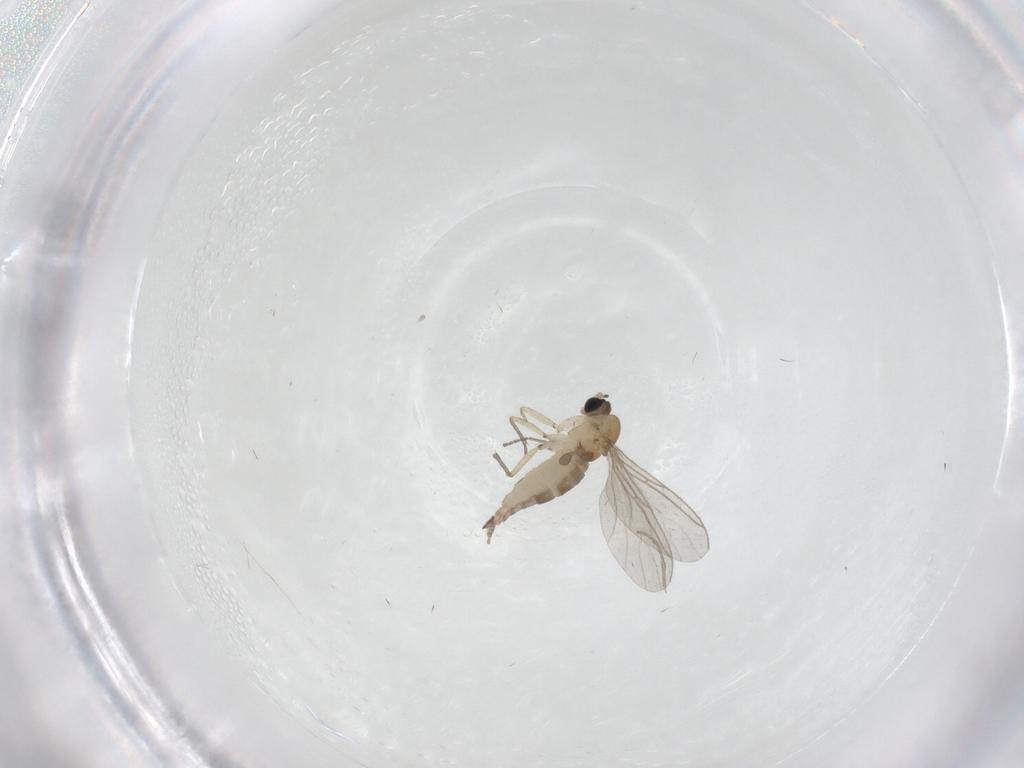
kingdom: Animalia
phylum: Arthropoda
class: Insecta
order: Diptera
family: Sciaridae
